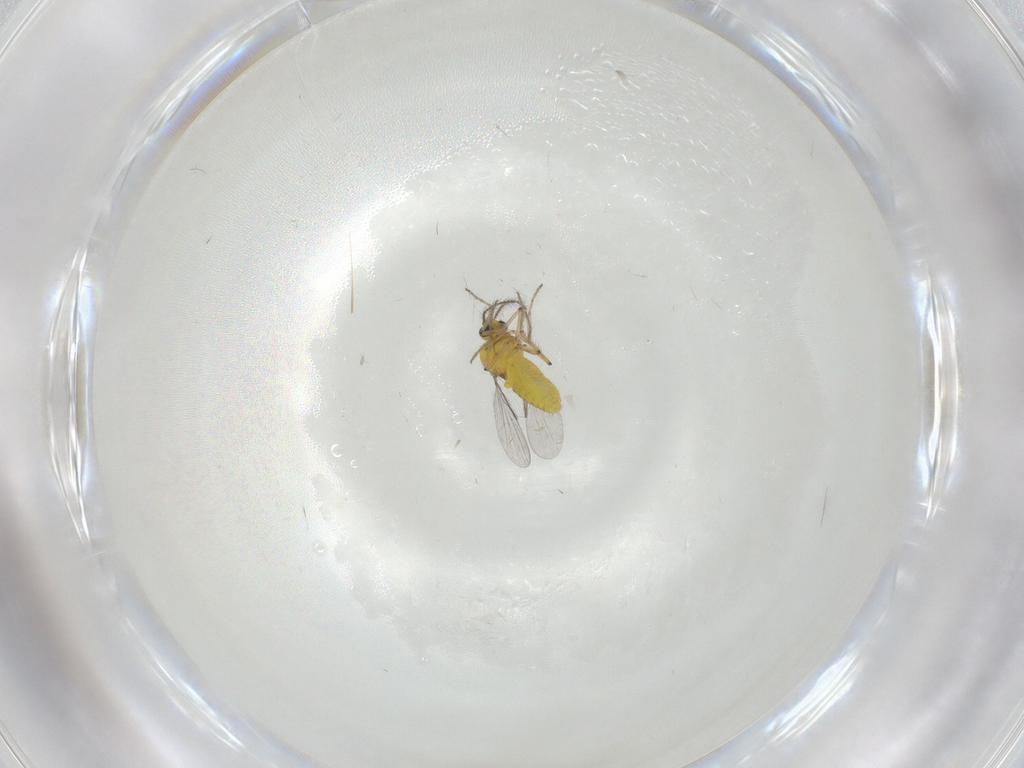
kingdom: Animalia
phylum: Arthropoda
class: Insecta
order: Diptera
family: Ceratopogonidae
